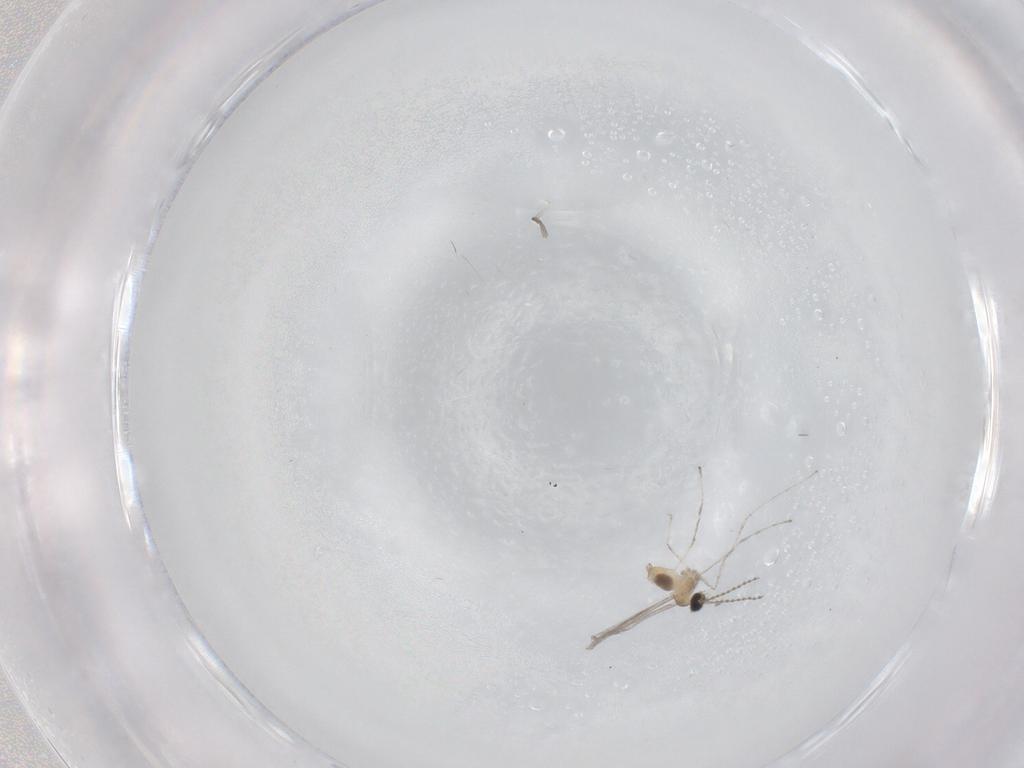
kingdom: Animalia
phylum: Arthropoda
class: Insecta
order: Diptera
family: Cecidomyiidae
